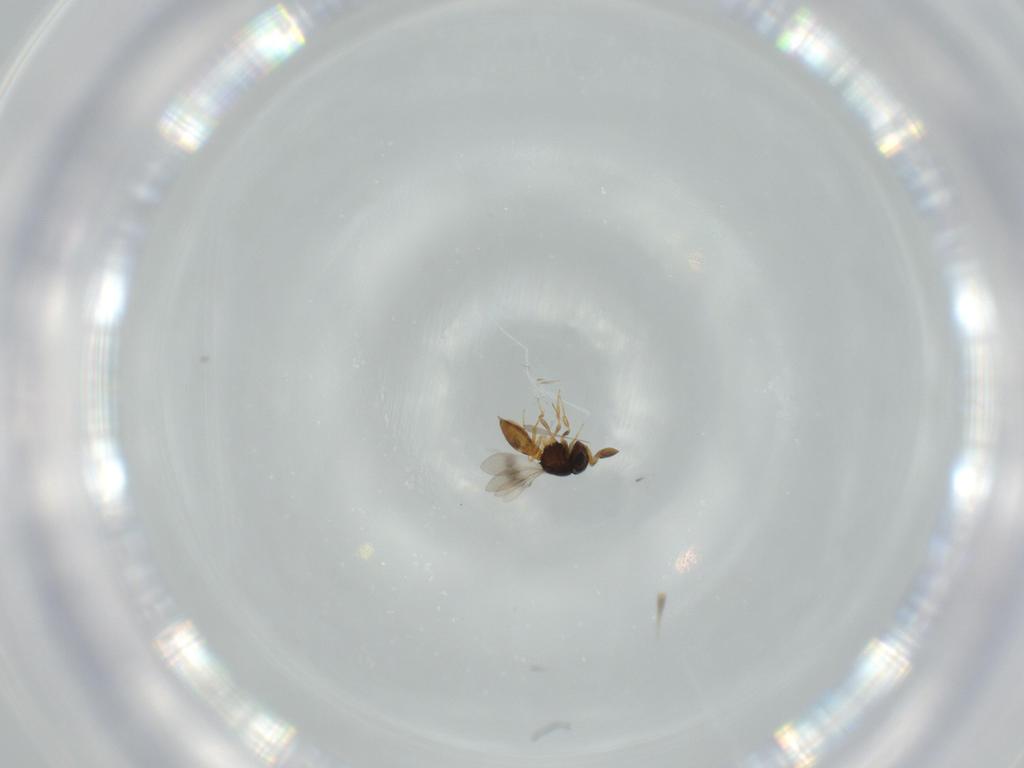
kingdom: Animalia
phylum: Arthropoda
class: Insecta
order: Hymenoptera
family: Scelionidae
